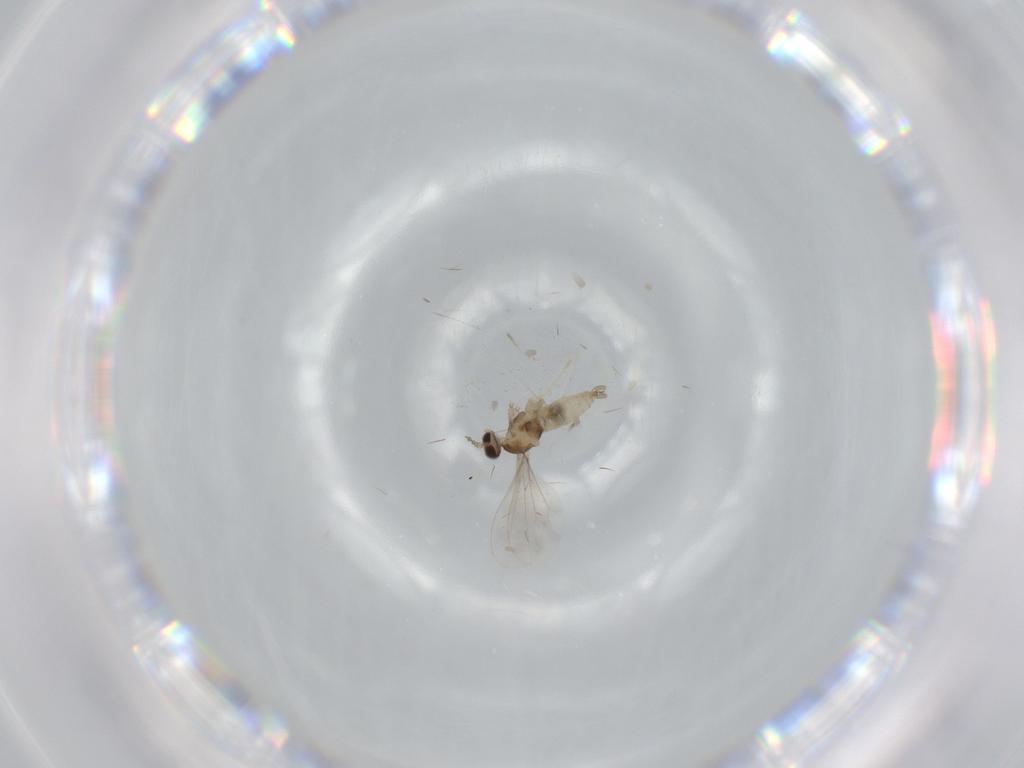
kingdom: Animalia
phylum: Arthropoda
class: Insecta
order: Diptera
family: Cecidomyiidae
